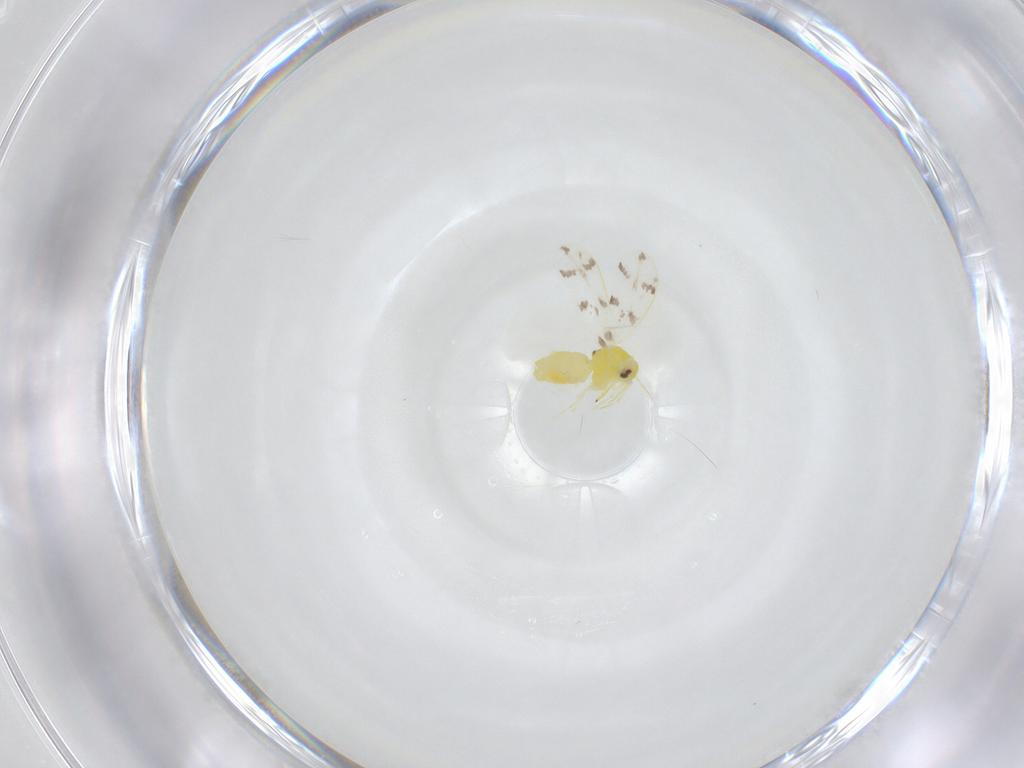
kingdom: Animalia
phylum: Arthropoda
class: Insecta
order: Hemiptera
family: Aleyrodidae
